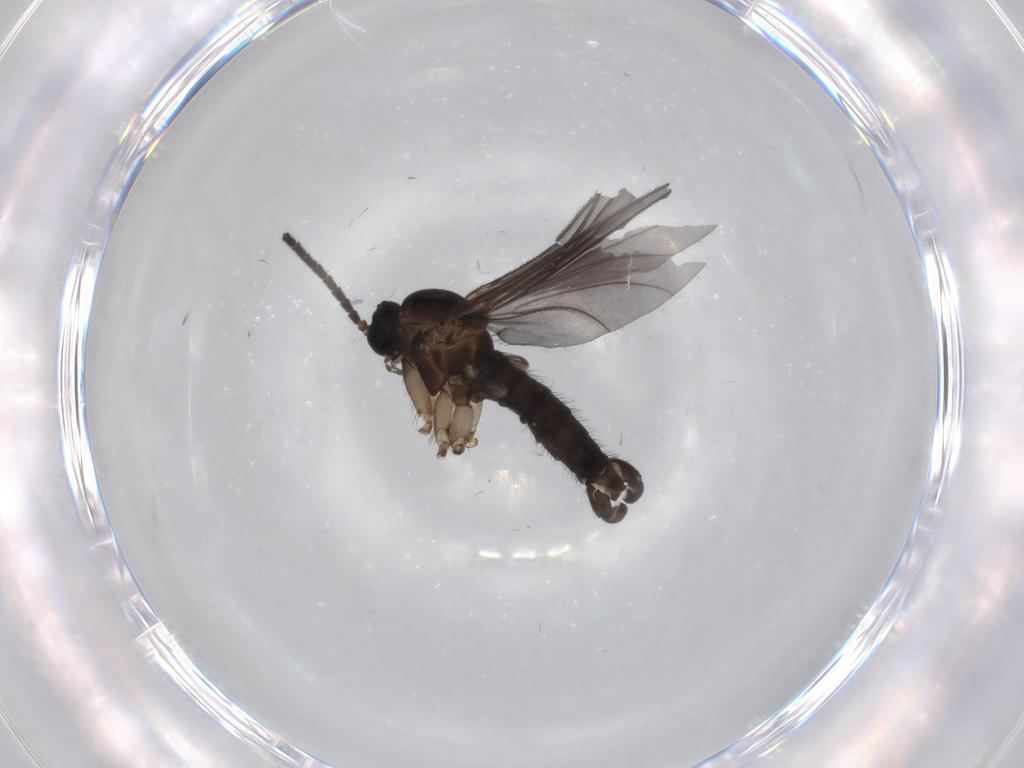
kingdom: Animalia
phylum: Arthropoda
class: Insecta
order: Diptera
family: Sciaridae
